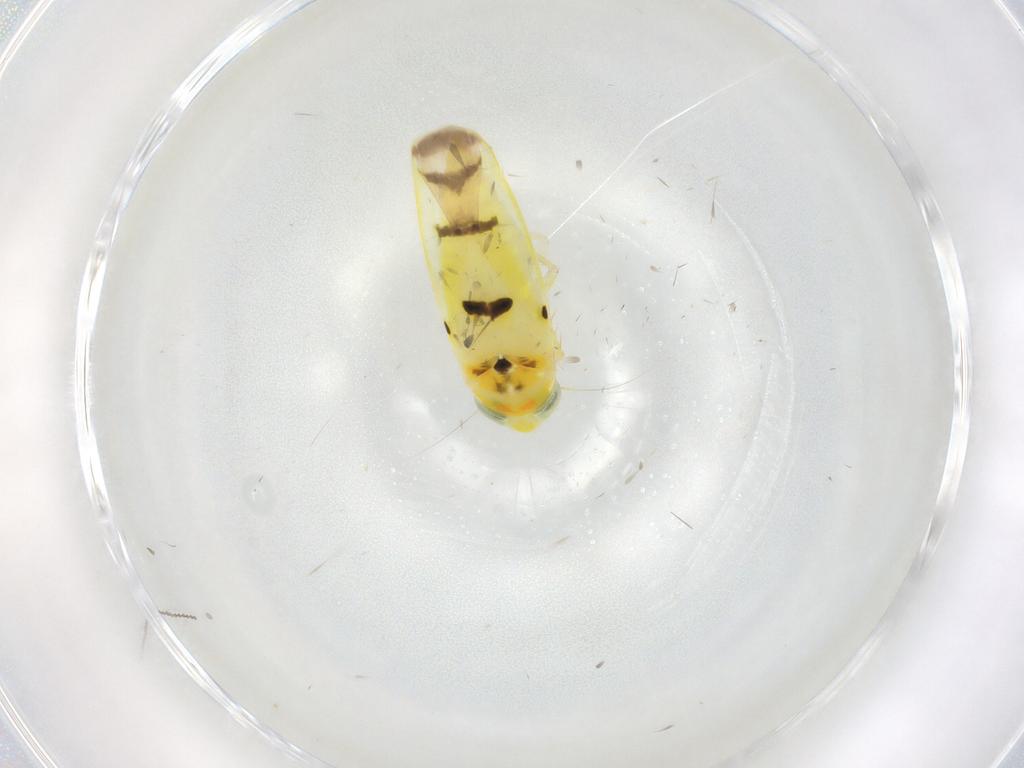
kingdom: Animalia
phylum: Arthropoda
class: Insecta
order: Hemiptera
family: Cicadellidae
